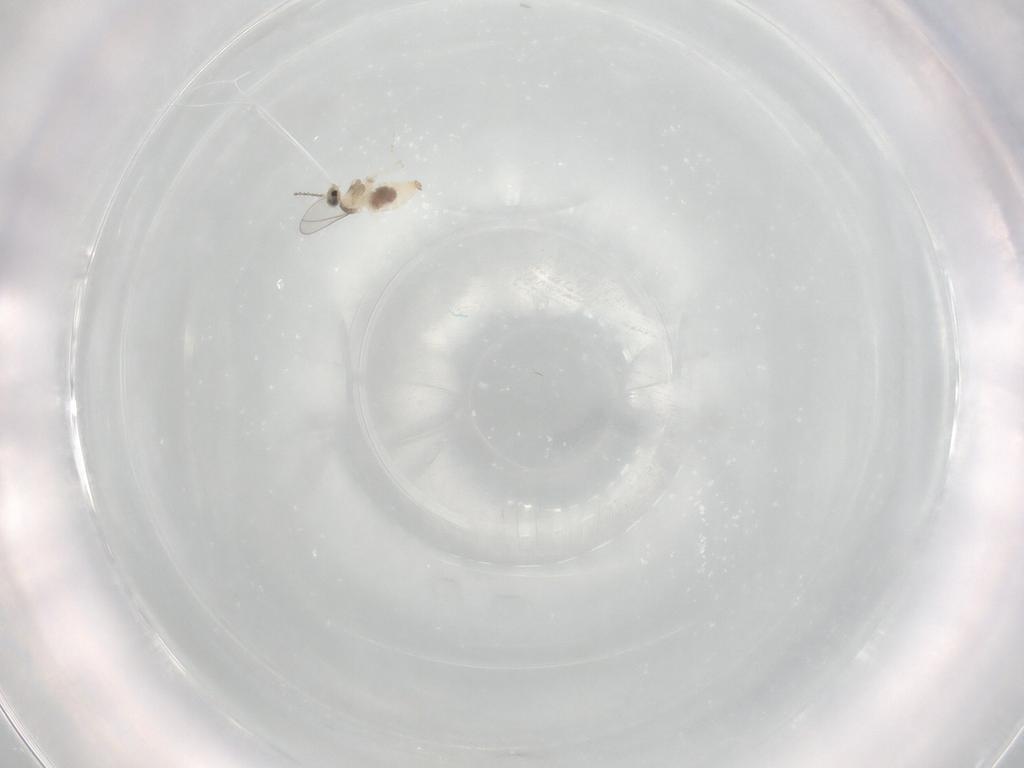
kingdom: Animalia
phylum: Arthropoda
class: Insecta
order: Diptera
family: Cecidomyiidae
